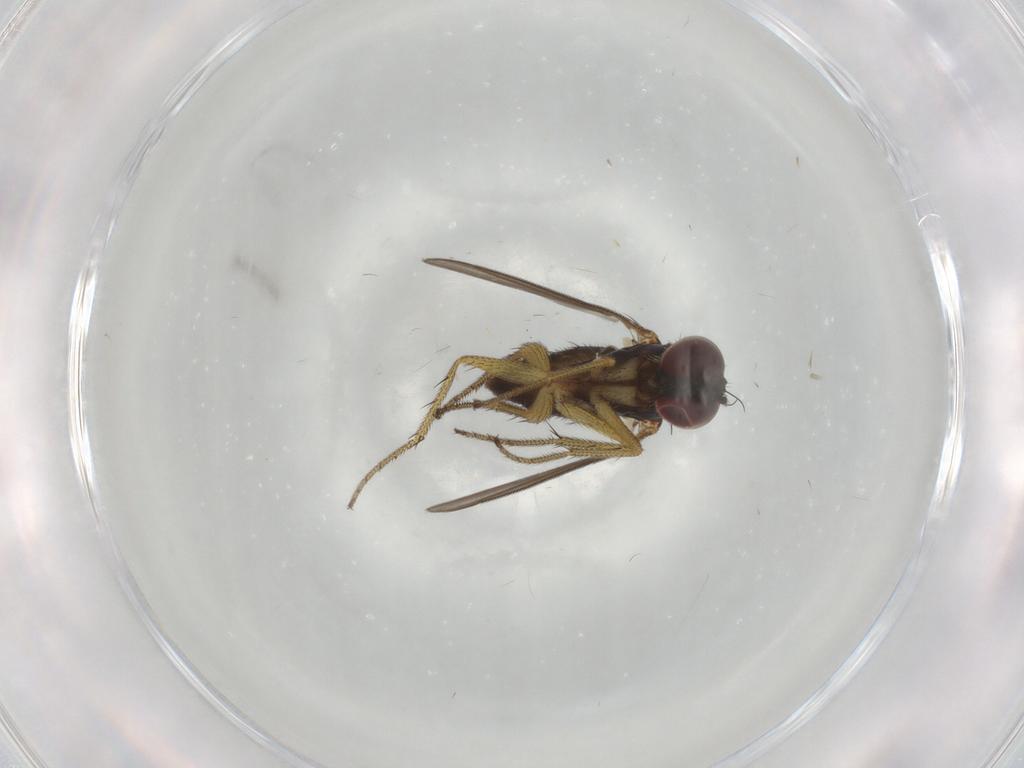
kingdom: Animalia
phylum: Arthropoda
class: Insecta
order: Diptera
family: Dolichopodidae
